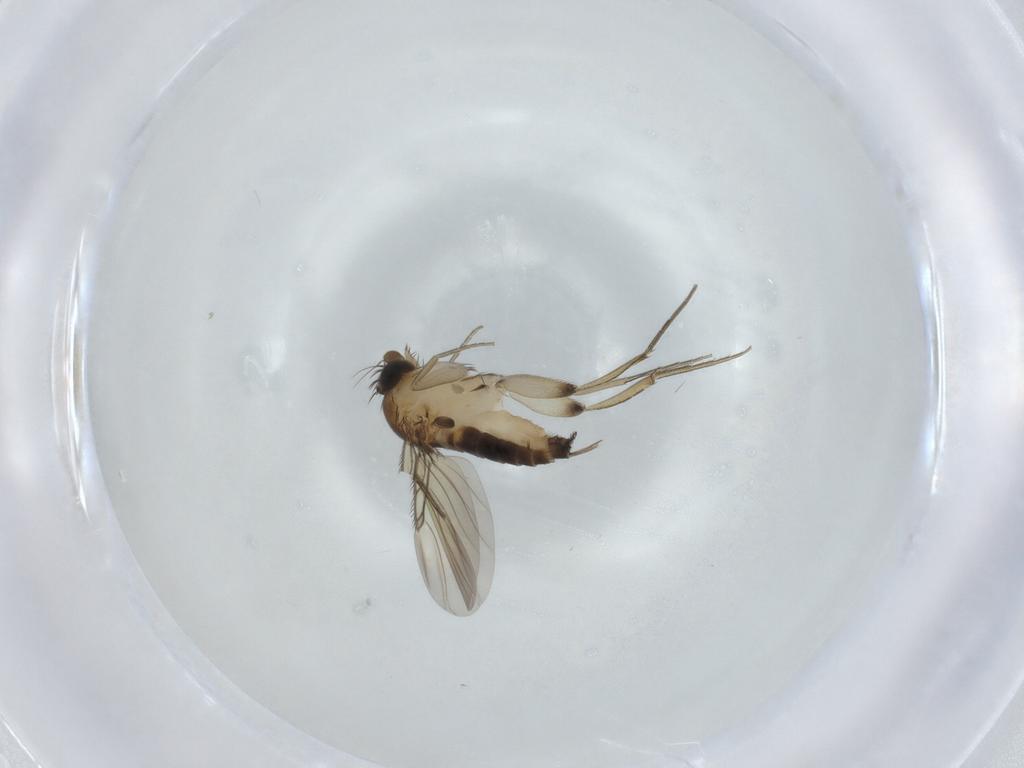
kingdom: Animalia
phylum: Arthropoda
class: Insecta
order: Diptera
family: Phoridae
